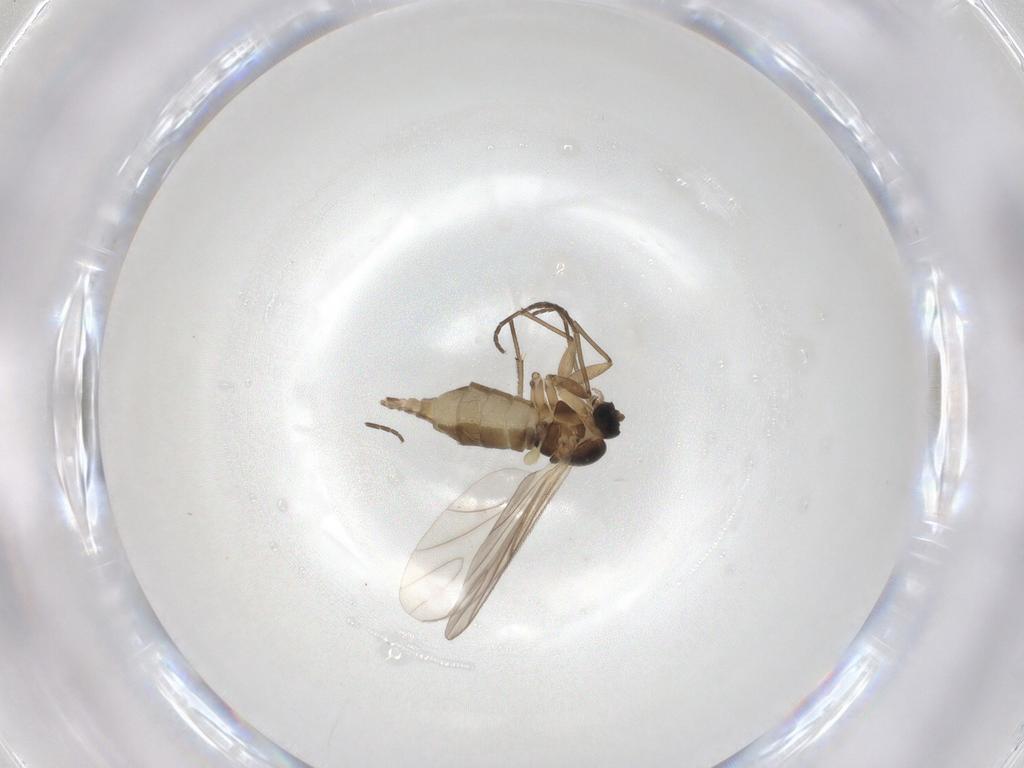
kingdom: Animalia
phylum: Arthropoda
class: Insecta
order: Diptera
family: Cecidomyiidae
